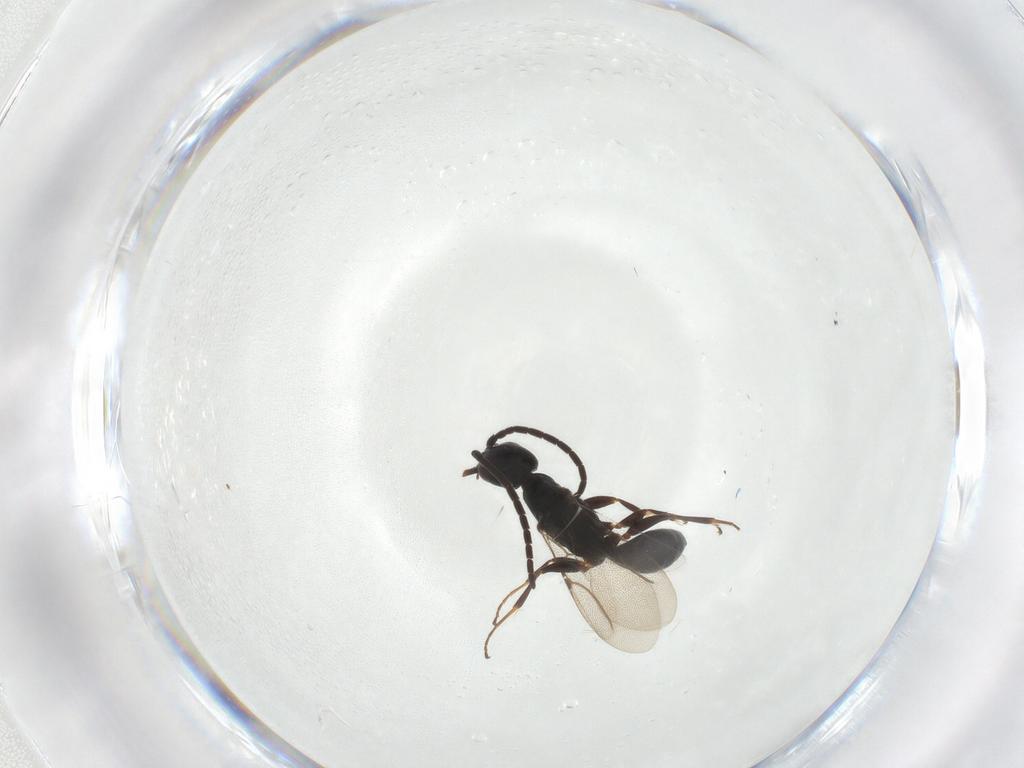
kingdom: Animalia
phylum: Arthropoda
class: Insecta
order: Hymenoptera
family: Bethylidae
